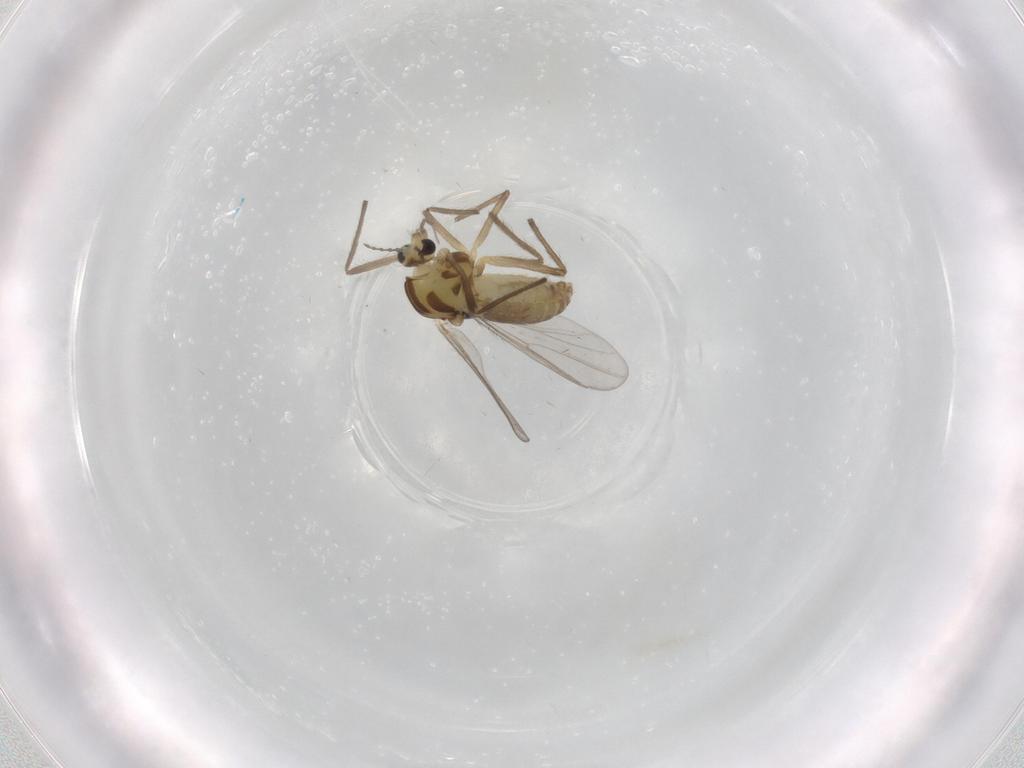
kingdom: Animalia
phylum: Arthropoda
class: Insecta
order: Diptera
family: Chironomidae
